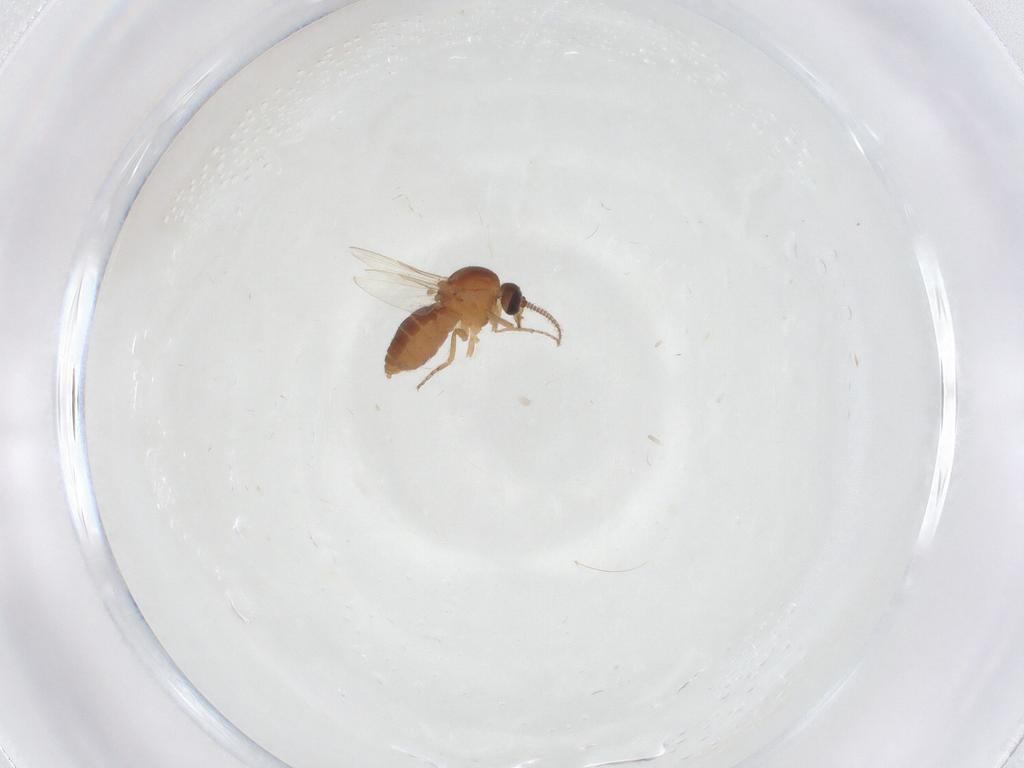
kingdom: Animalia
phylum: Arthropoda
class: Insecta
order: Diptera
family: Ceratopogonidae
